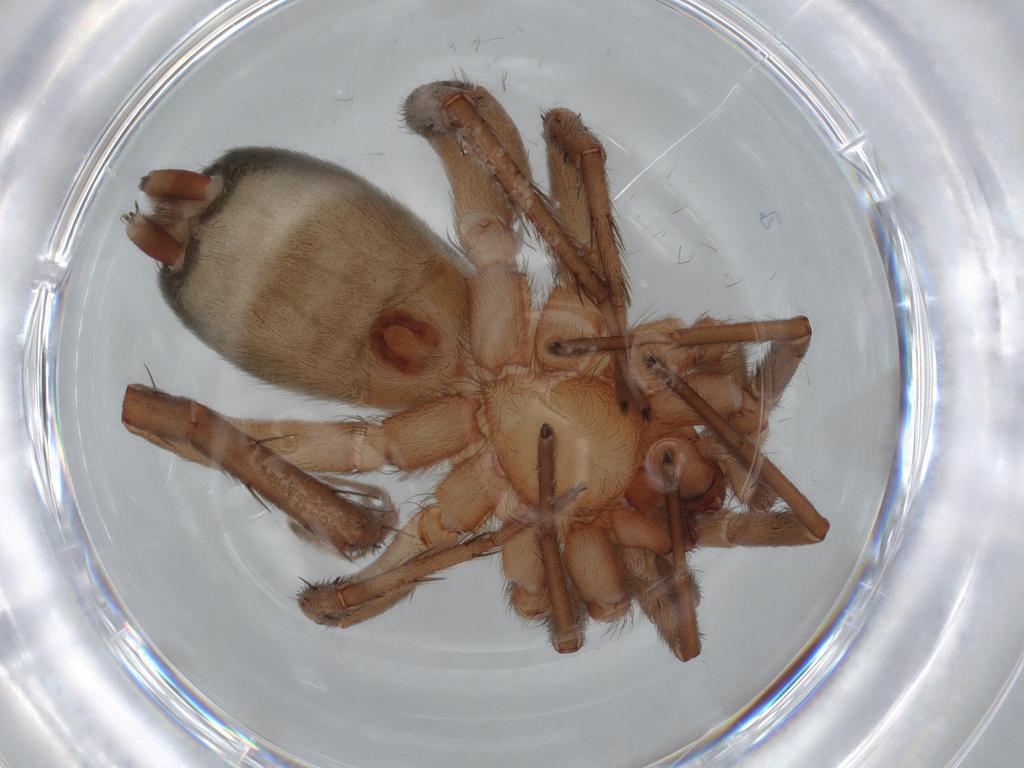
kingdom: Animalia
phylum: Arthropoda
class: Arachnida
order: Araneae
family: Gnaphosidae
